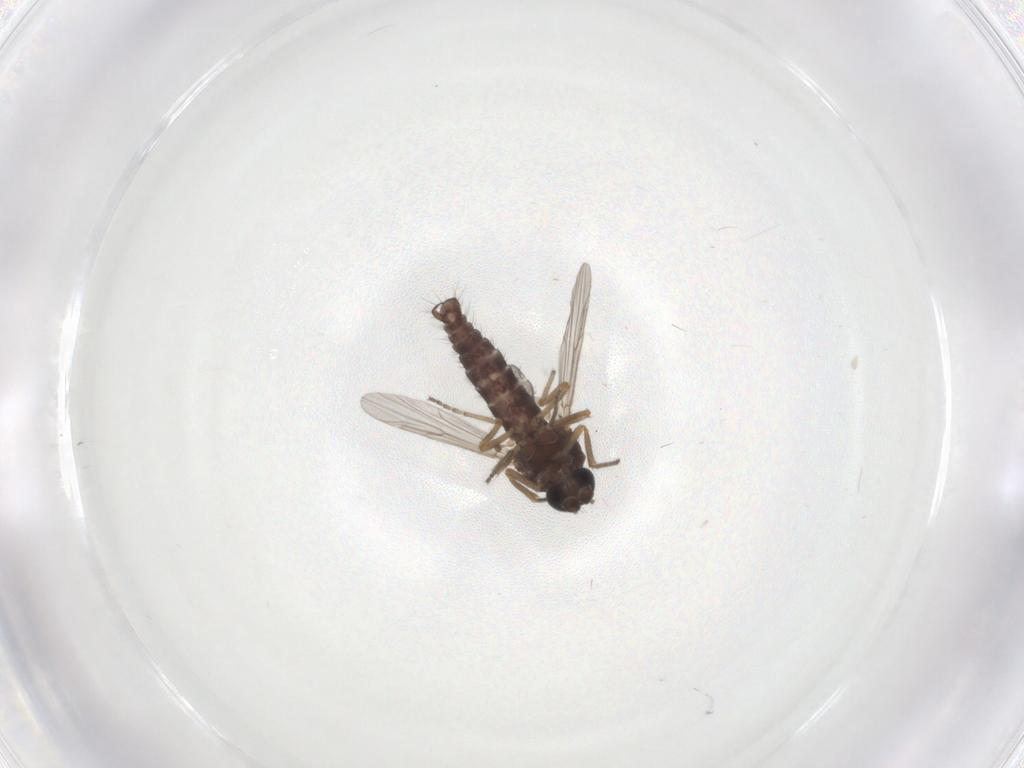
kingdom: Animalia
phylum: Arthropoda
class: Insecta
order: Diptera
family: Ceratopogonidae
